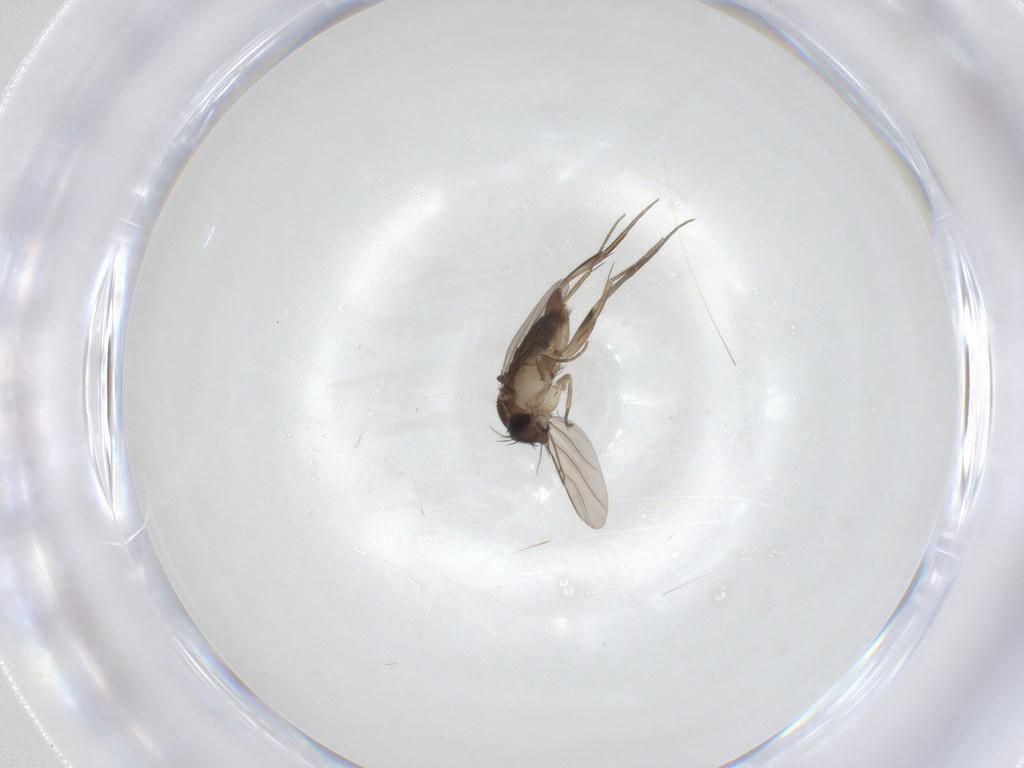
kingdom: Animalia
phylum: Arthropoda
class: Insecta
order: Diptera
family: Phoridae
